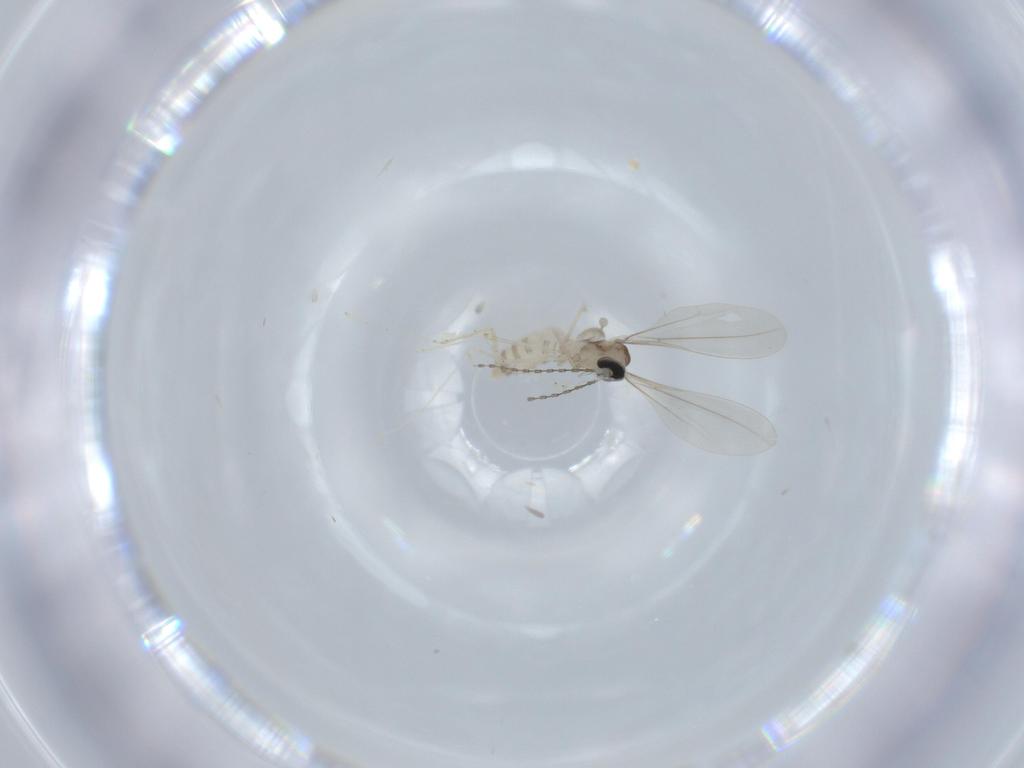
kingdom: Animalia
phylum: Arthropoda
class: Insecta
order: Diptera
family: Cecidomyiidae
